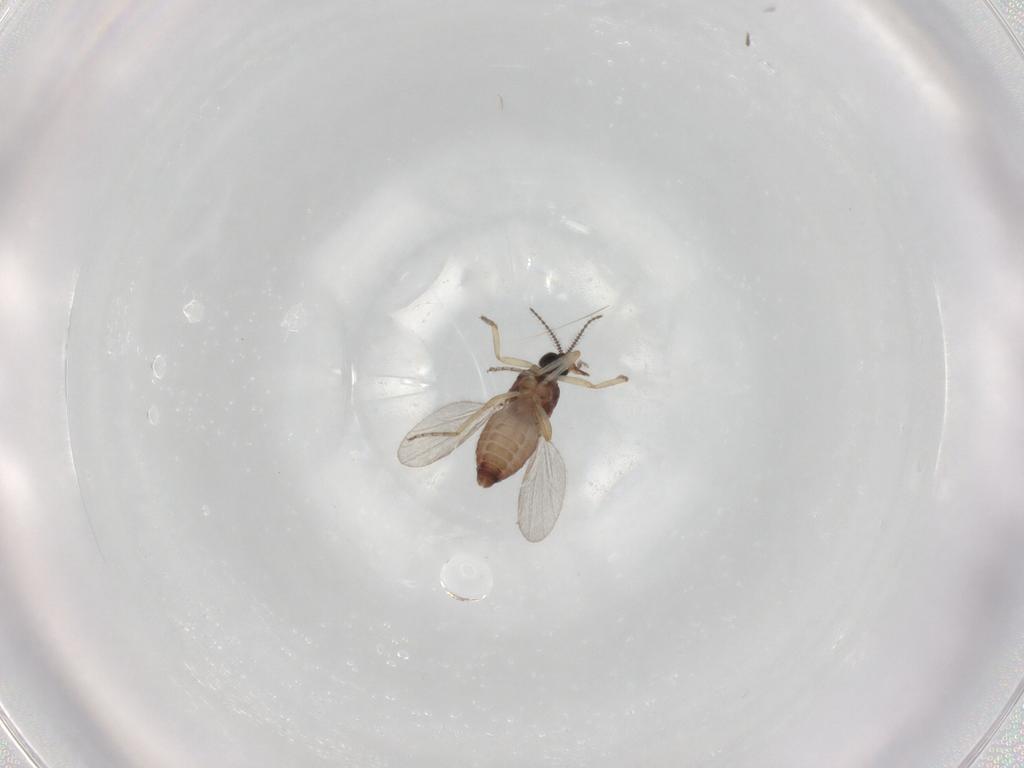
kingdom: Animalia
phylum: Arthropoda
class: Insecta
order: Diptera
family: Ceratopogonidae
